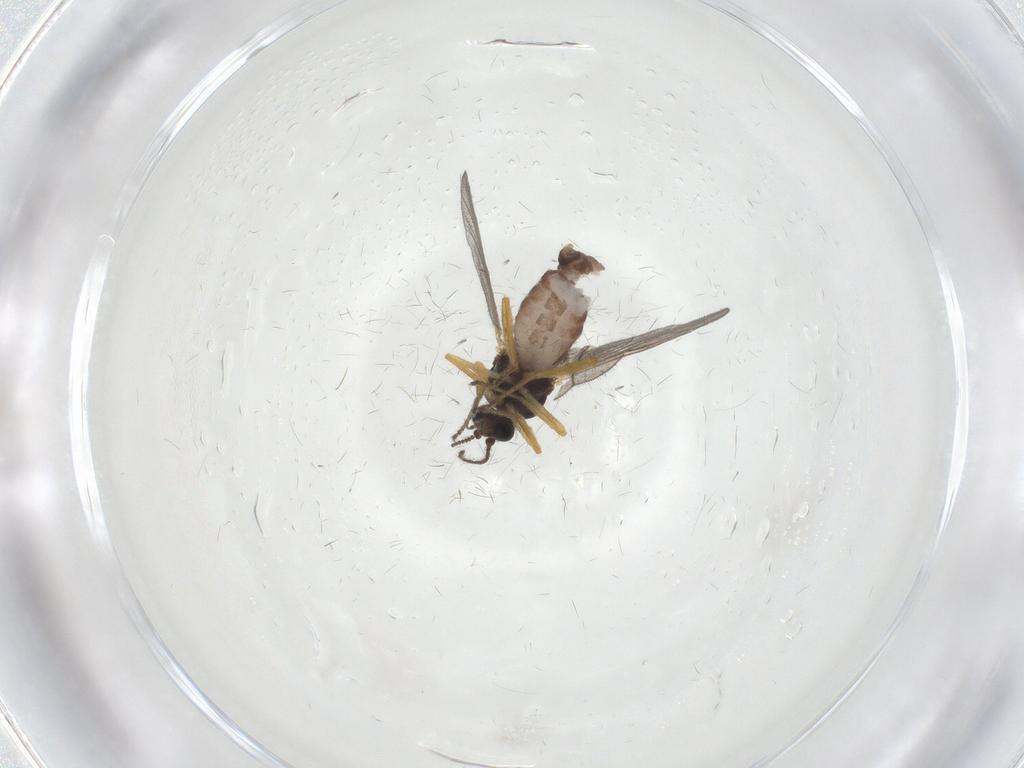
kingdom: Animalia
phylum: Arthropoda
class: Insecta
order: Diptera
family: Ceratopogonidae
